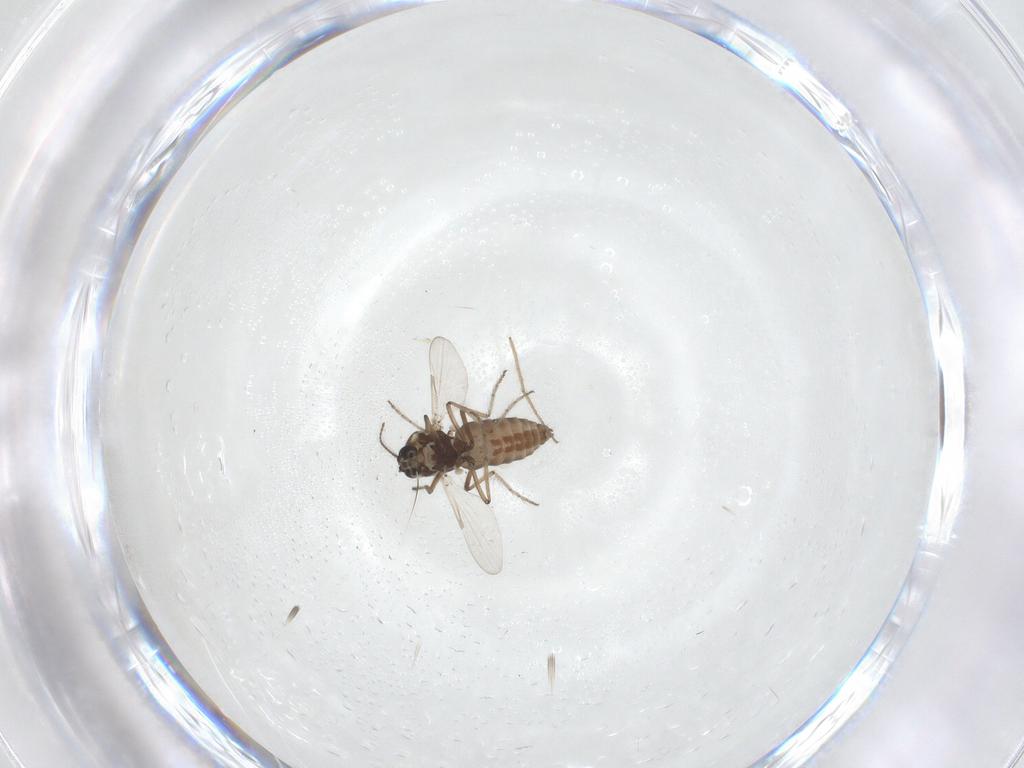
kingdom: Animalia
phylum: Arthropoda
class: Insecta
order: Diptera
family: Ceratopogonidae
